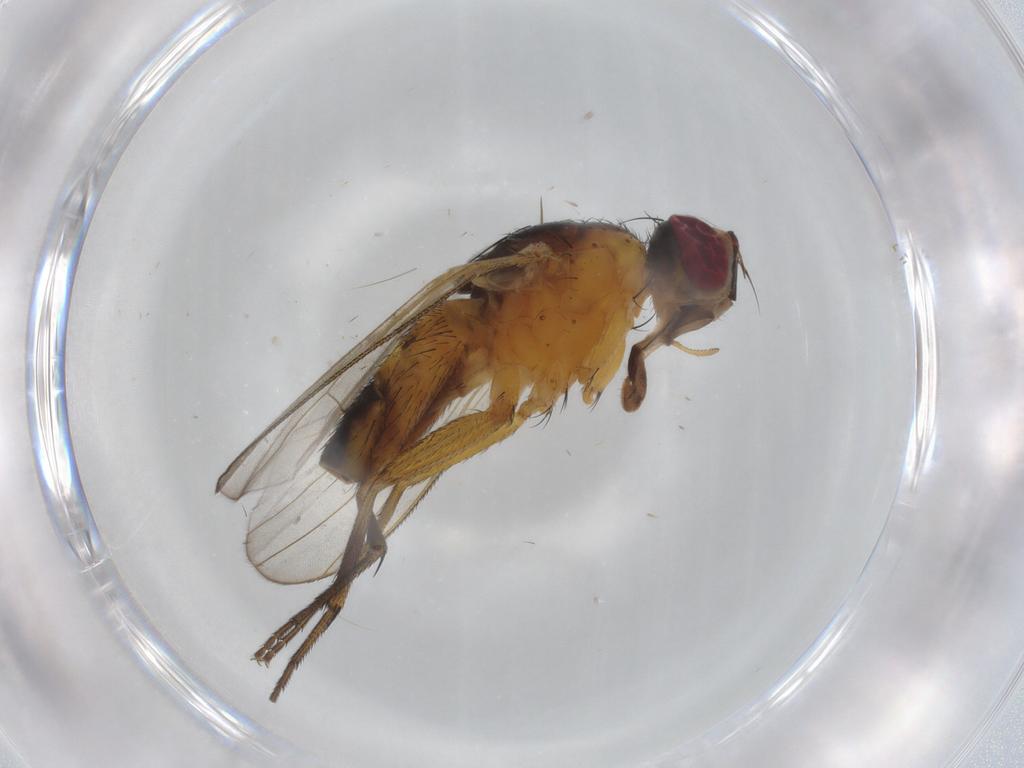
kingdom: Animalia
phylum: Arthropoda
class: Insecta
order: Diptera
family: Muscidae
